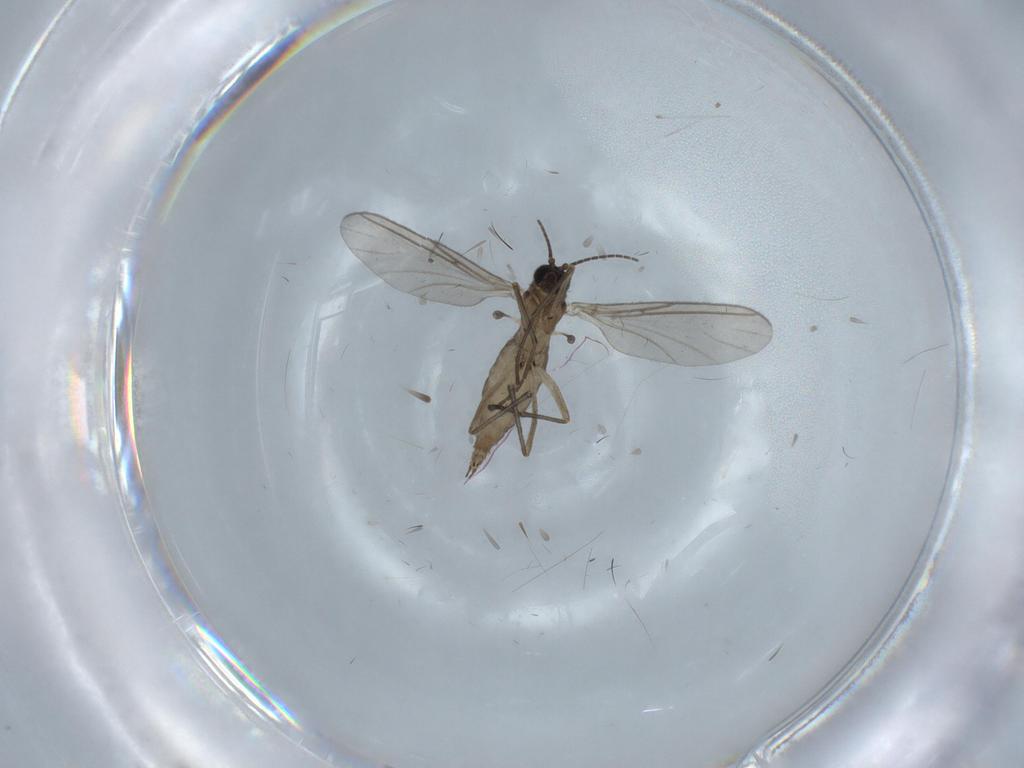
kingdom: Animalia
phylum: Arthropoda
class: Insecta
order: Diptera
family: Sciaridae
